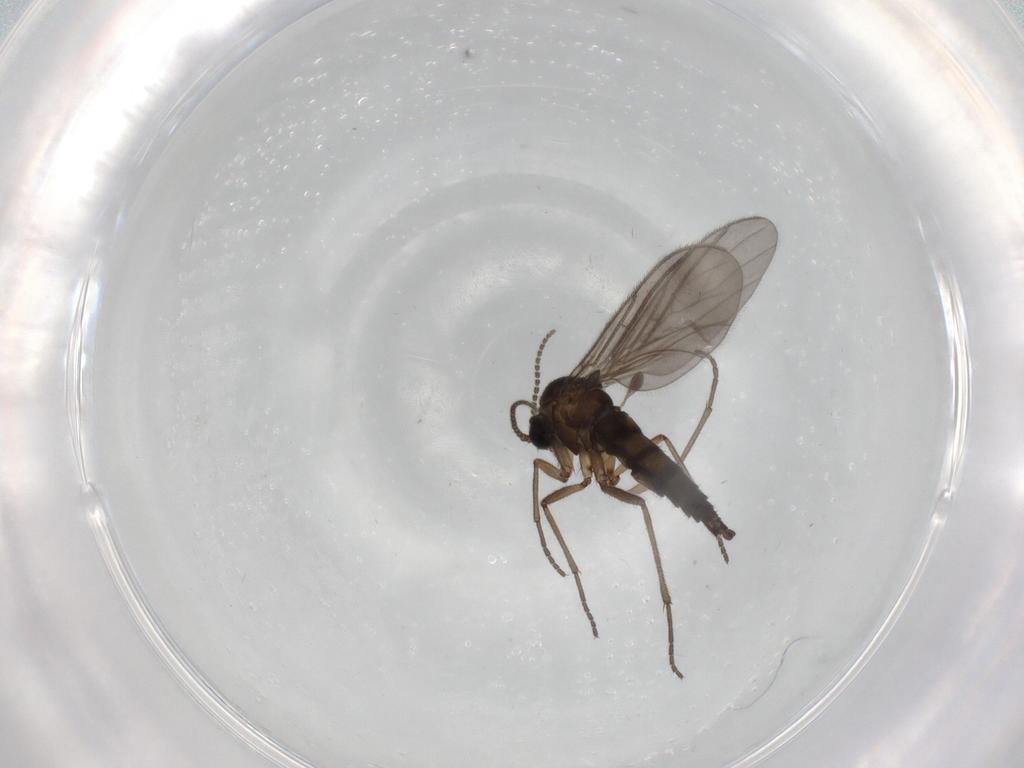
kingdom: Animalia
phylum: Arthropoda
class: Insecta
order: Diptera
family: Sciaridae
